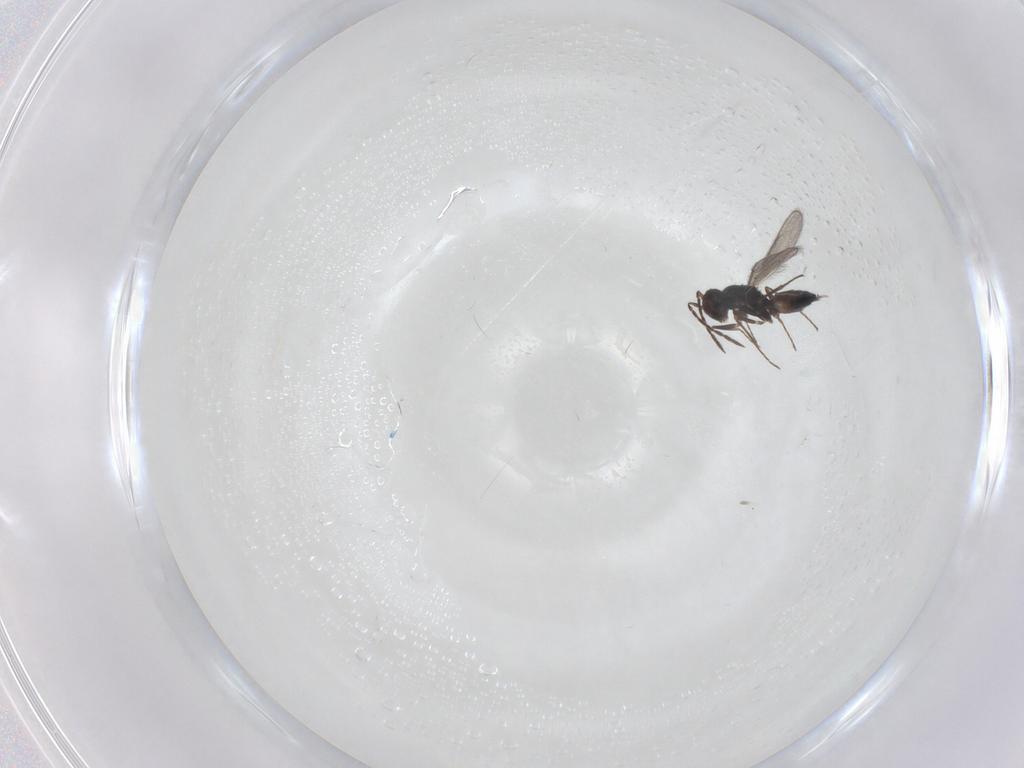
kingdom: Animalia
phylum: Arthropoda
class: Insecta
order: Hymenoptera
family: Eulophidae
